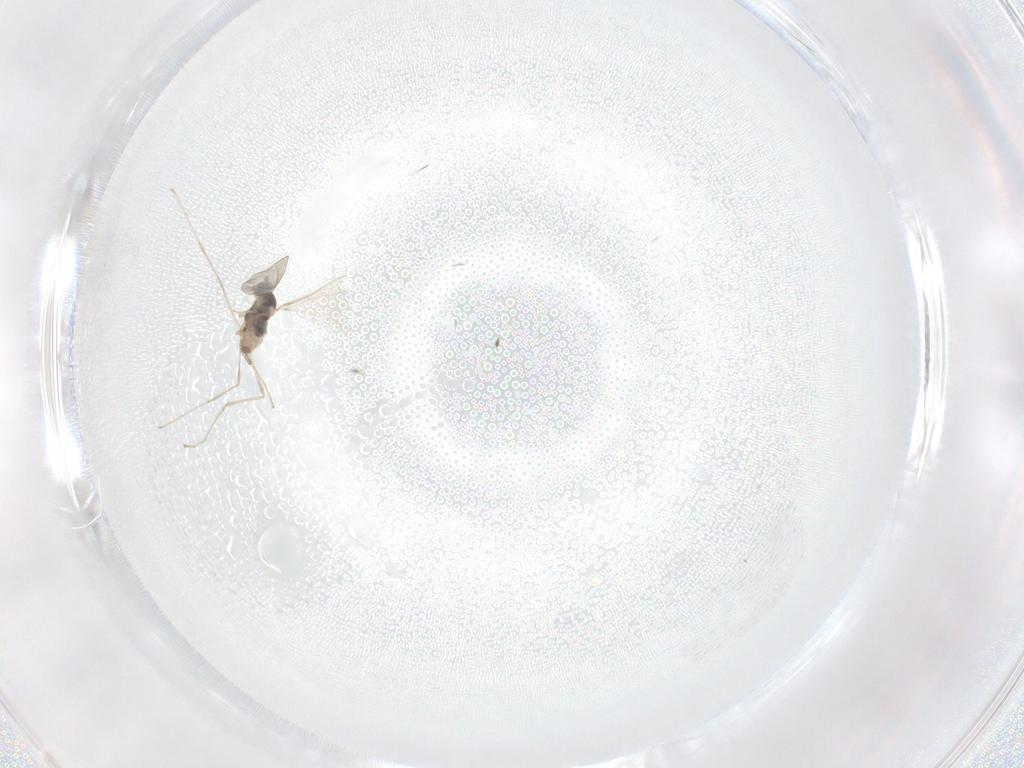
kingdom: Animalia
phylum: Arthropoda
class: Insecta
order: Diptera
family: Cecidomyiidae
